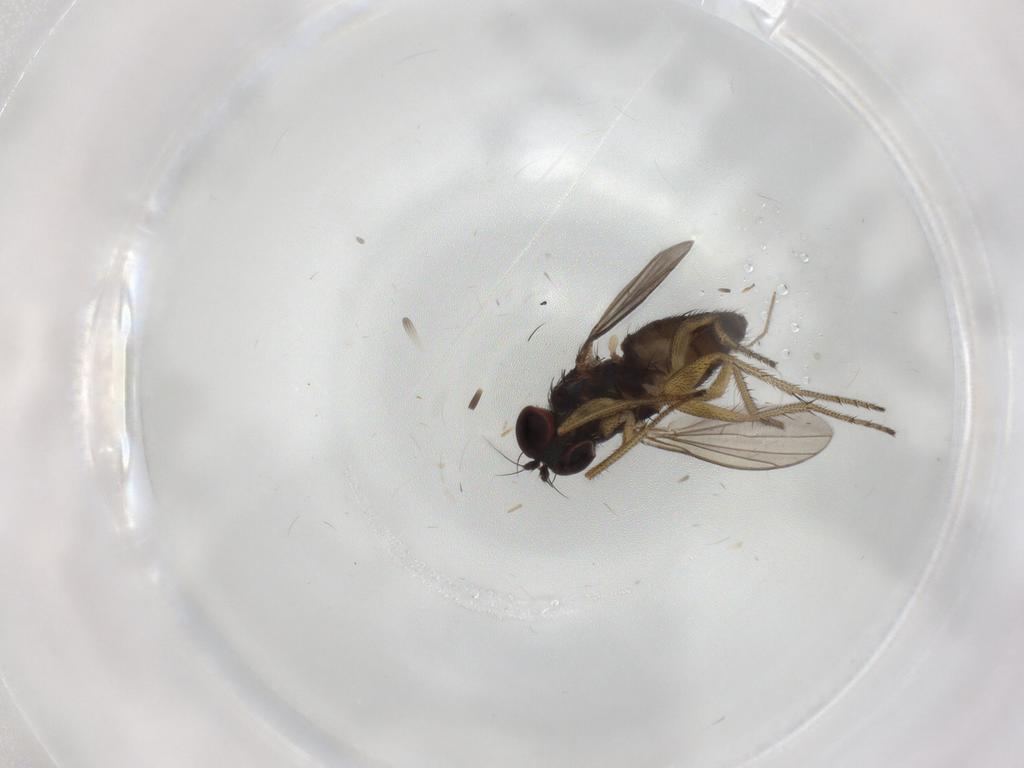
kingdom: Animalia
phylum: Arthropoda
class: Insecta
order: Diptera
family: Dolichopodidae
